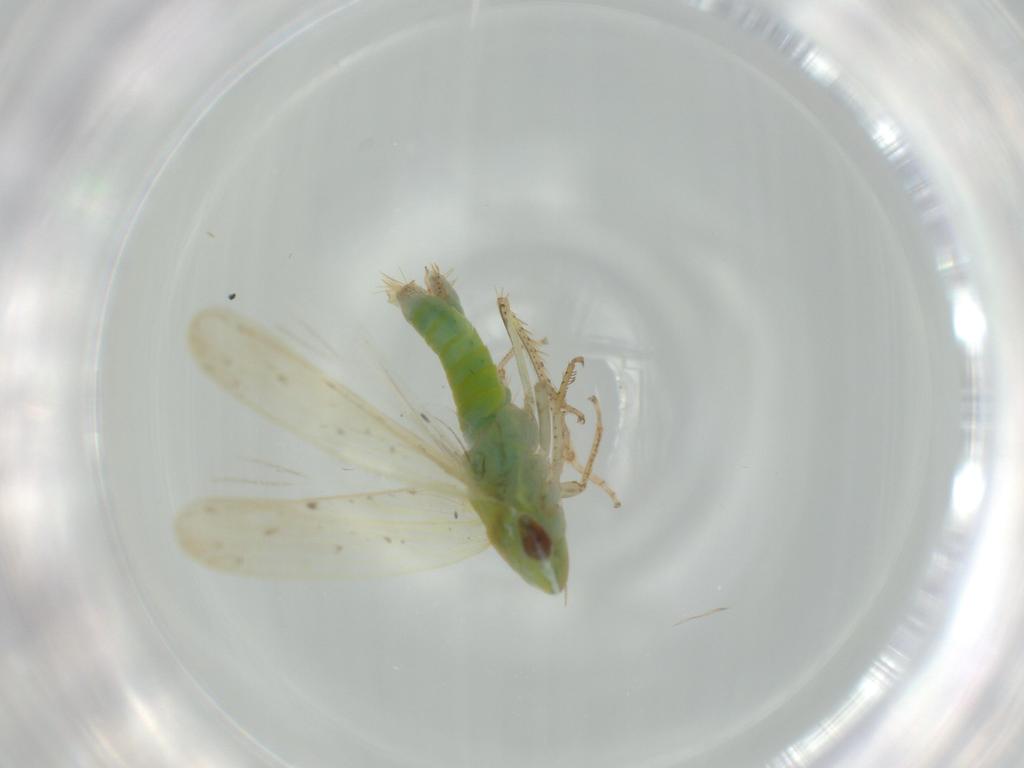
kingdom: Animalia
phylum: Arthropoda
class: Insecta
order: Hemiptera
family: Cicadellidae
